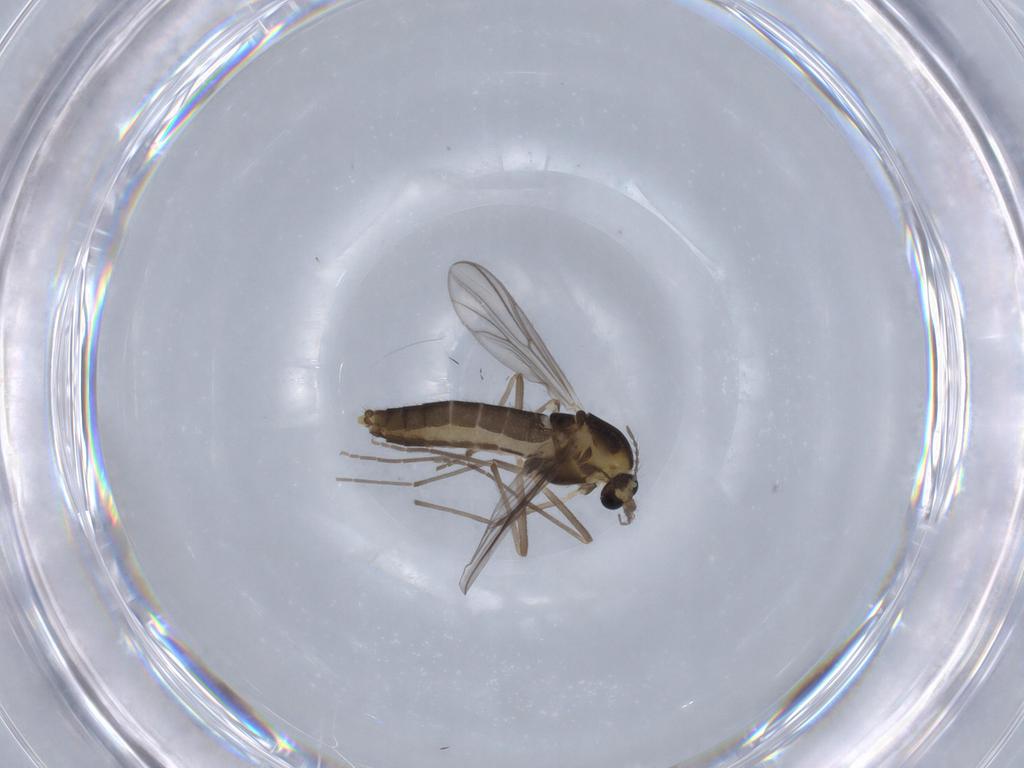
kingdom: Animalia
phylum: Arthropoda
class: Insecta
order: Diptera
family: Chironomidae
